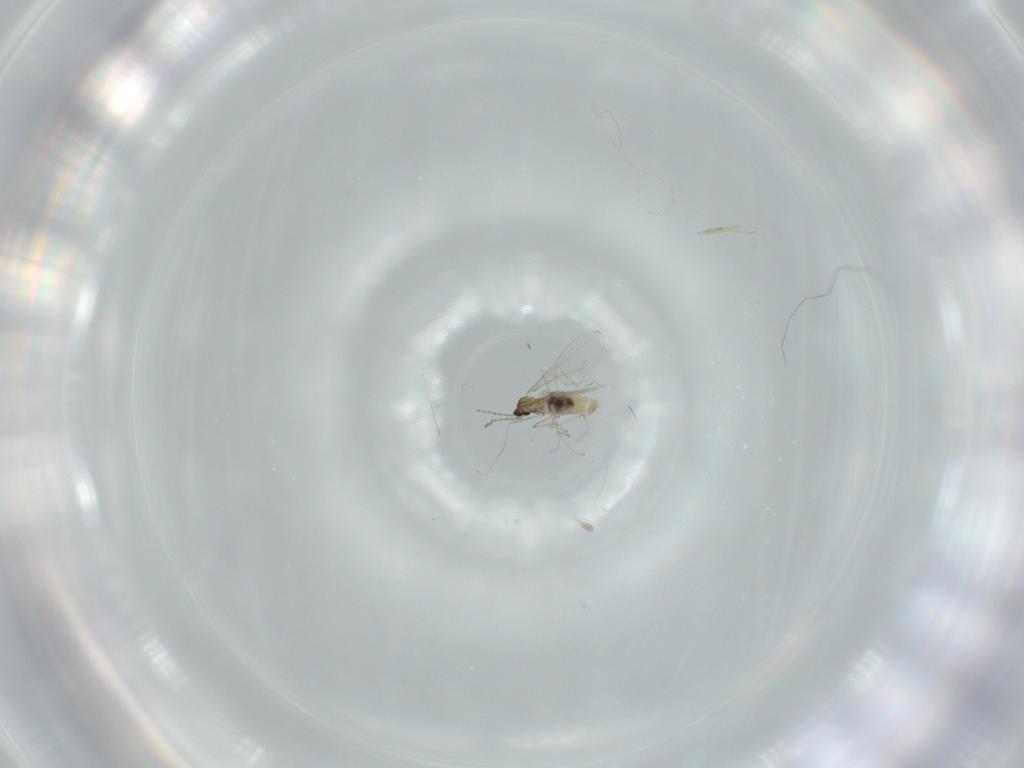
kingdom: Animalia
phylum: Arthropoda
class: Insecta
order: Diptera
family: Cecidomyiidae
